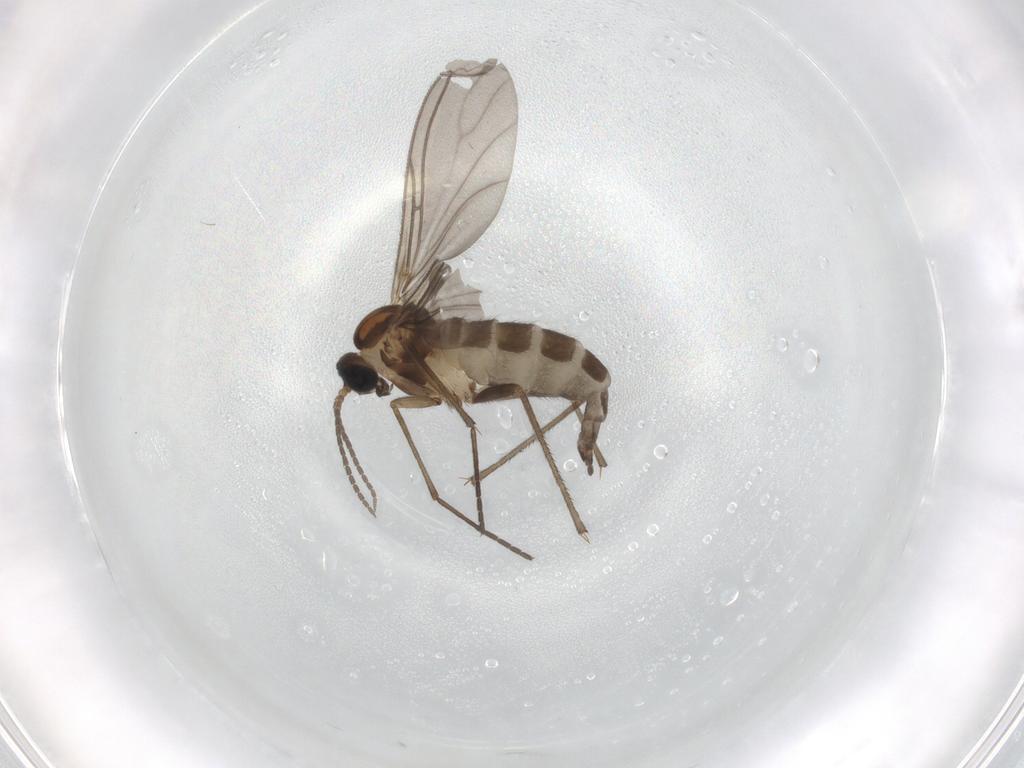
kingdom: Animalia
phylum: Arthropoda
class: Insecta
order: Diptera
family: Sciaridae
